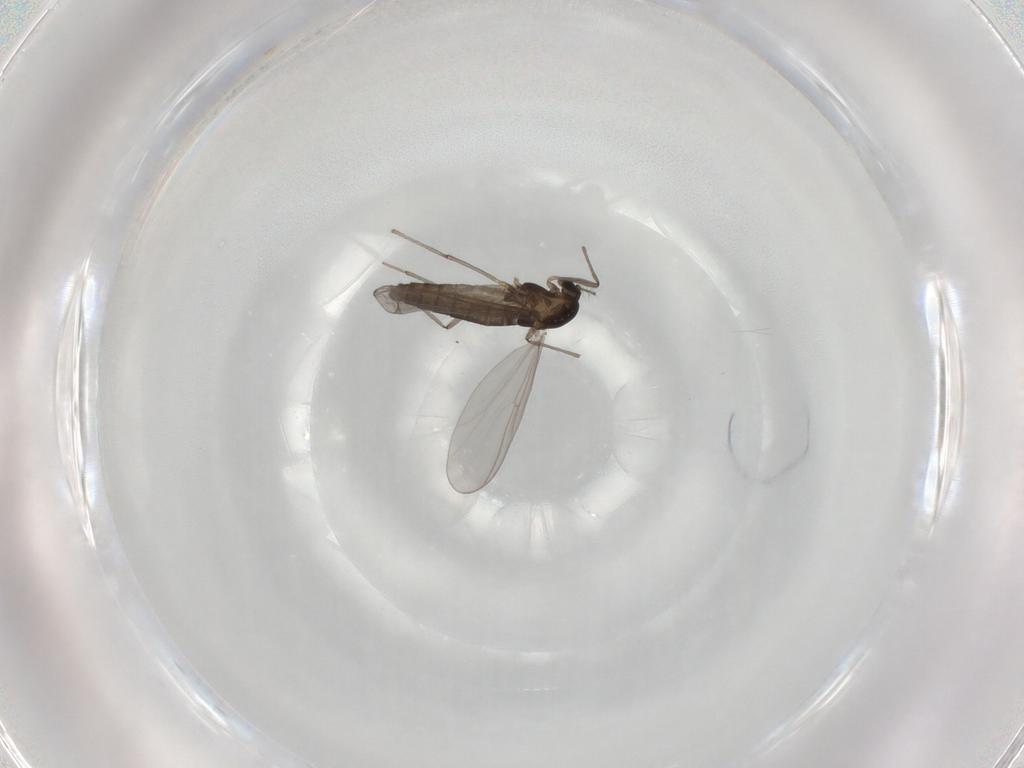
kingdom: Animalia
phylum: Arthropoda
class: Insecta
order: Diptera
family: Chironomidae
